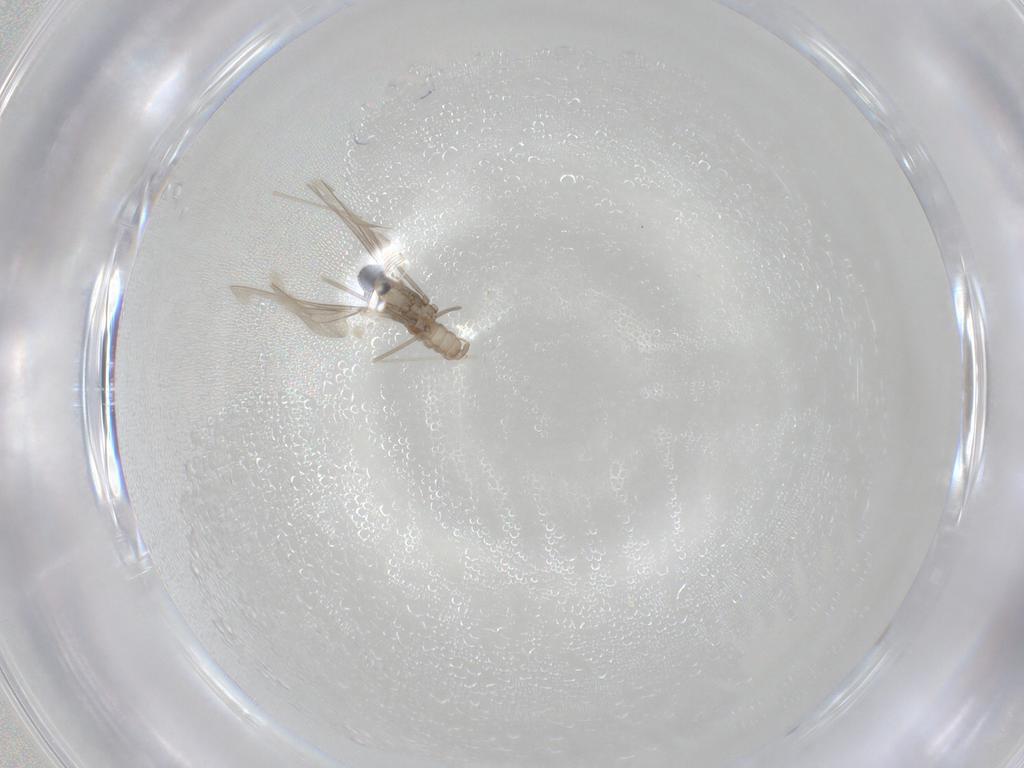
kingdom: Animalia
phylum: Arthropoda
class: Insecta
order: Diptera
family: Cecidomyiidae
